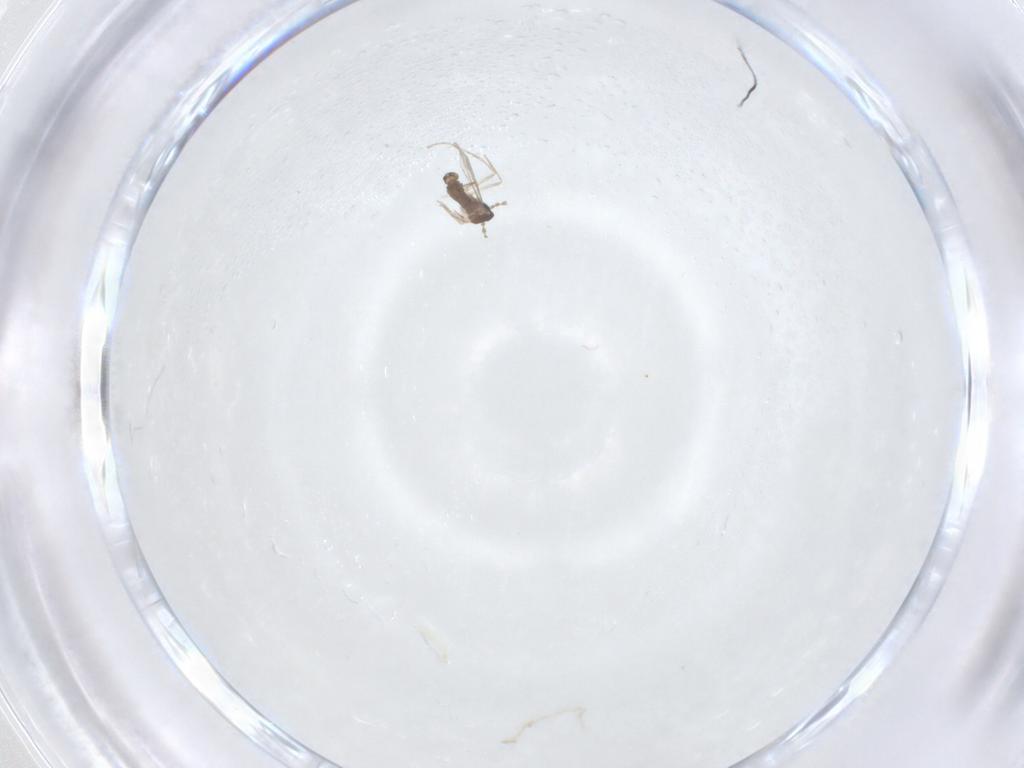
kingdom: Animalia
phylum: Arthropoda
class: Insecta
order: Diptera
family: Cecidomyiidae
